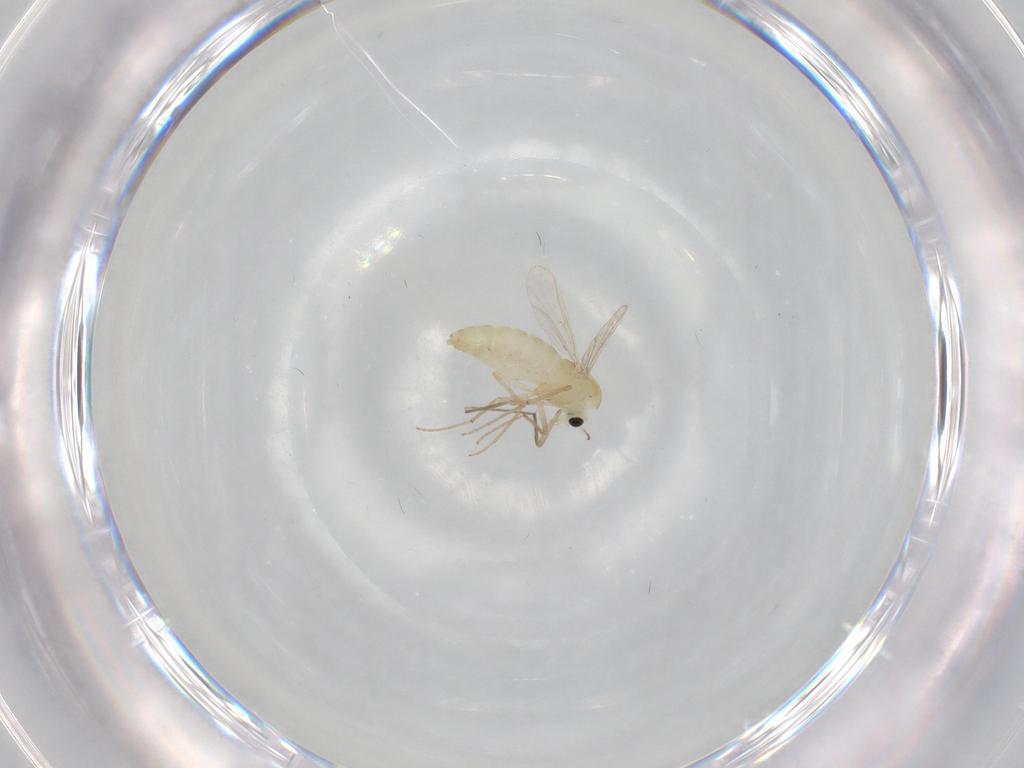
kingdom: Animalia
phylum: Arthropoda
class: Insecta
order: Diptera
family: Chironomidae
